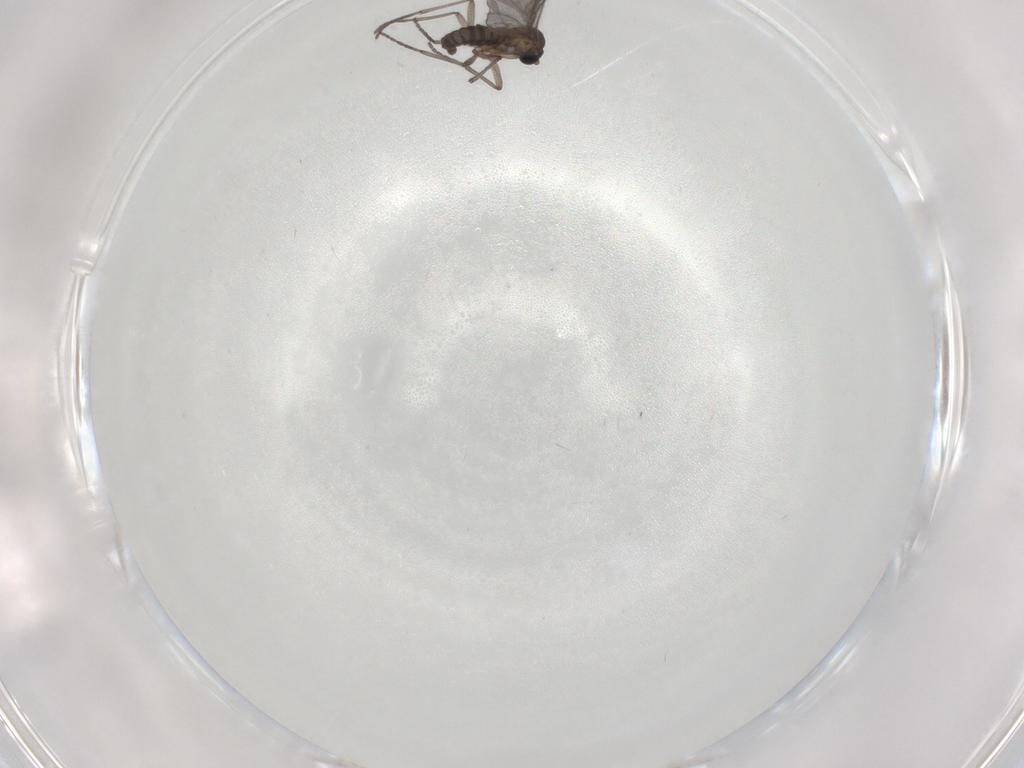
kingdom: Animalia
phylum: Arthropoda
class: Insecta
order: Diptera
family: Sciaridae
